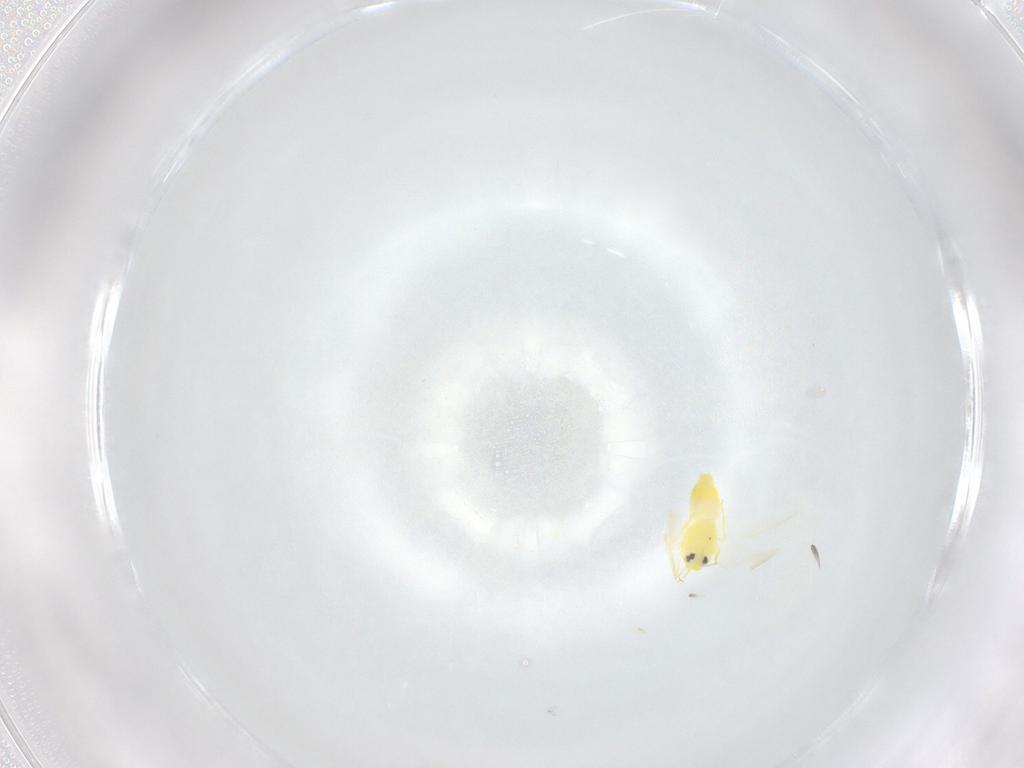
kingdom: Animalia
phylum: Arthropoda
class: Insecta
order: Hemiptera
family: Aleyrodidae
